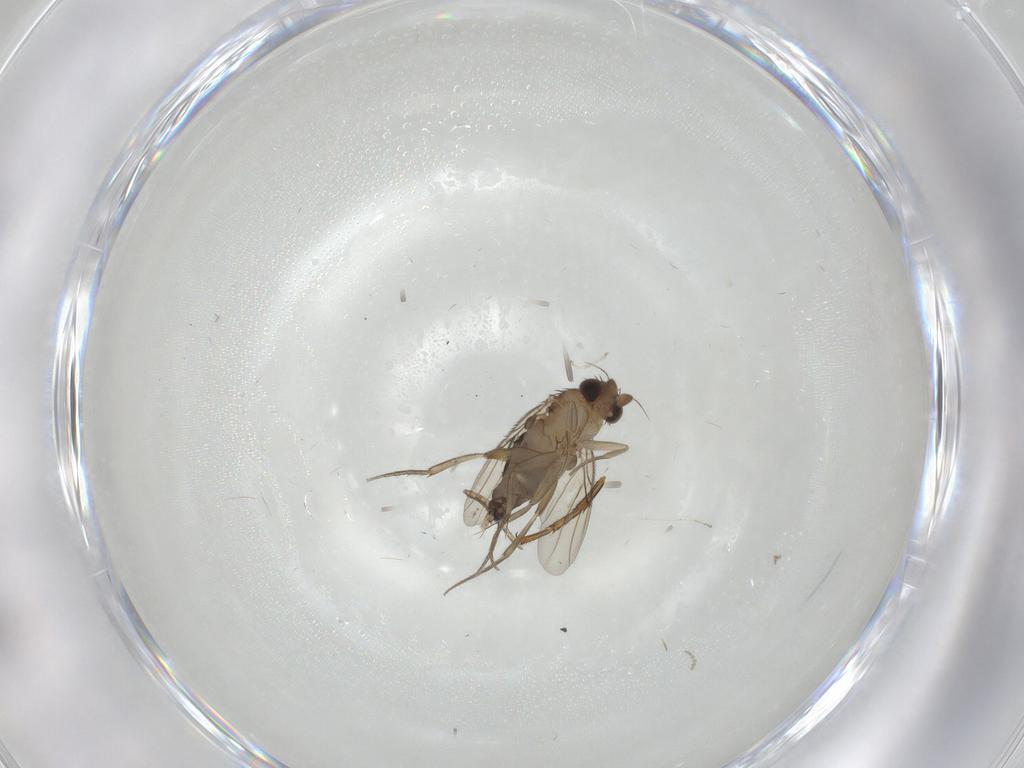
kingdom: Animalia
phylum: Arthropoda
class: Insecta
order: Diptera
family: Phoridae
